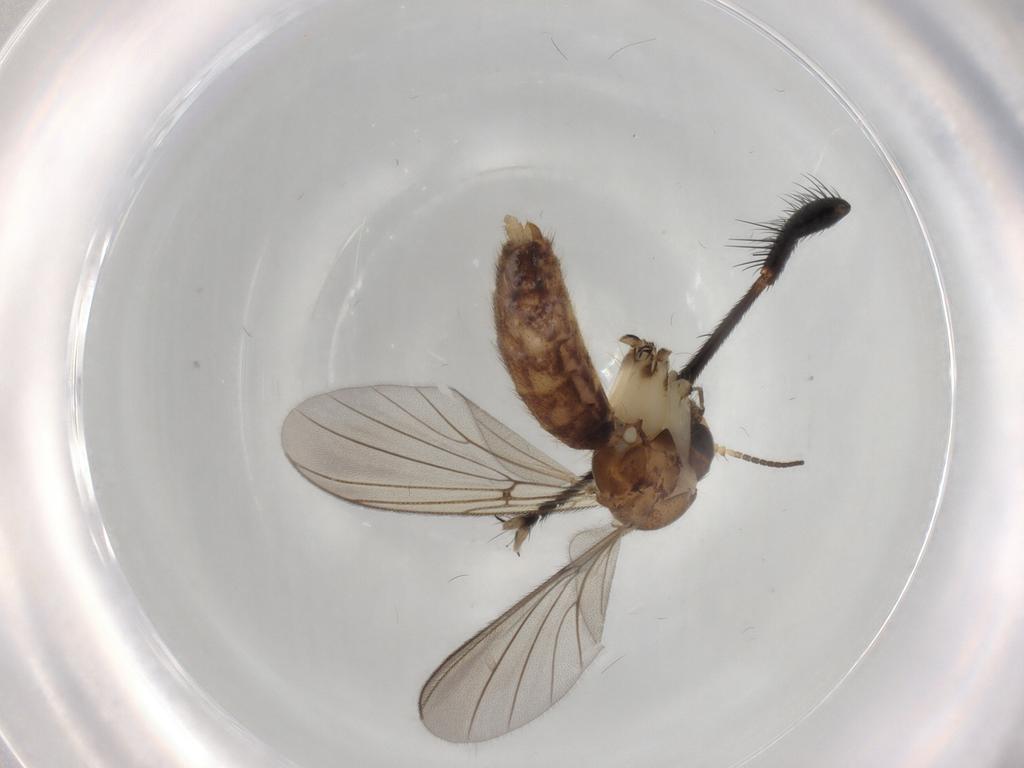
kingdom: Animalia
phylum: Arthropoda
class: Insecta
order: Diptera
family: Muscidae
